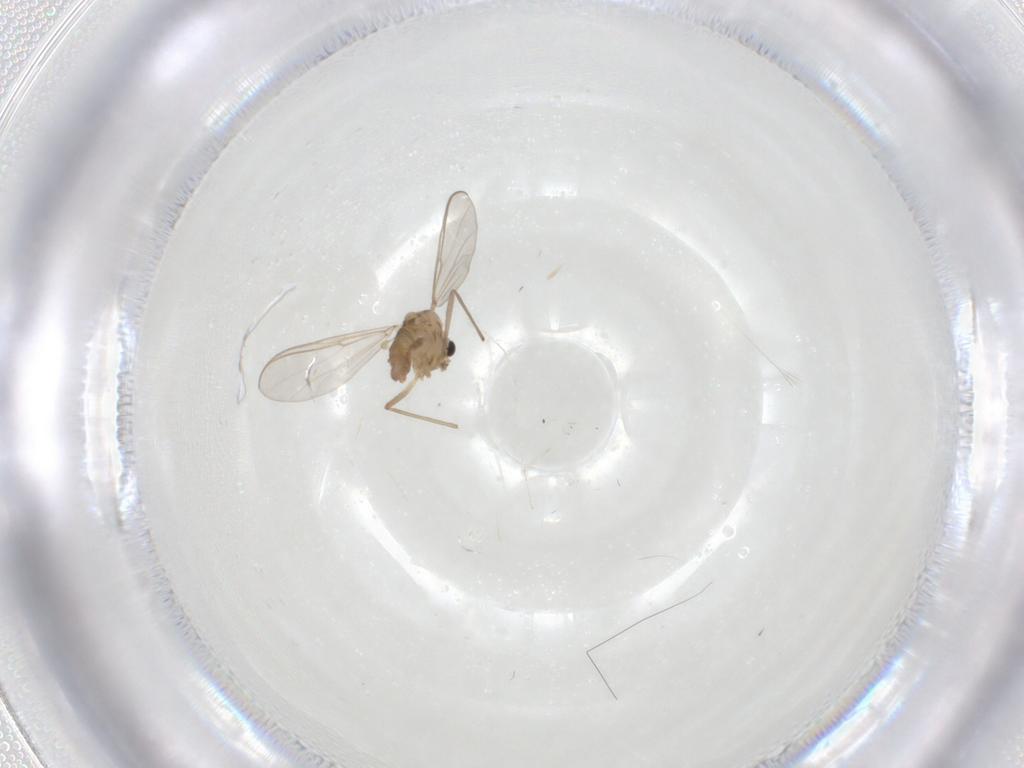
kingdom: Animalia
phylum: Arthropoda
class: Insecta
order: Diptera
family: Chironomidae
